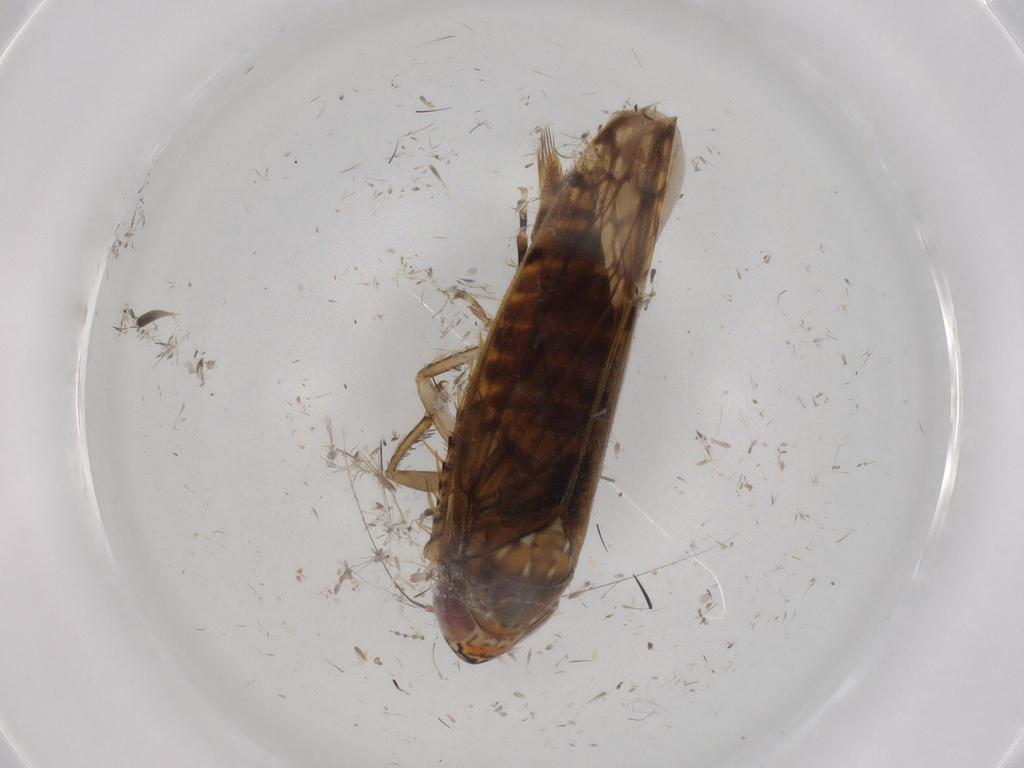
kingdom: Animalia
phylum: Arthropoda
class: Insecta
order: Hemiptera
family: Cicadellidae
